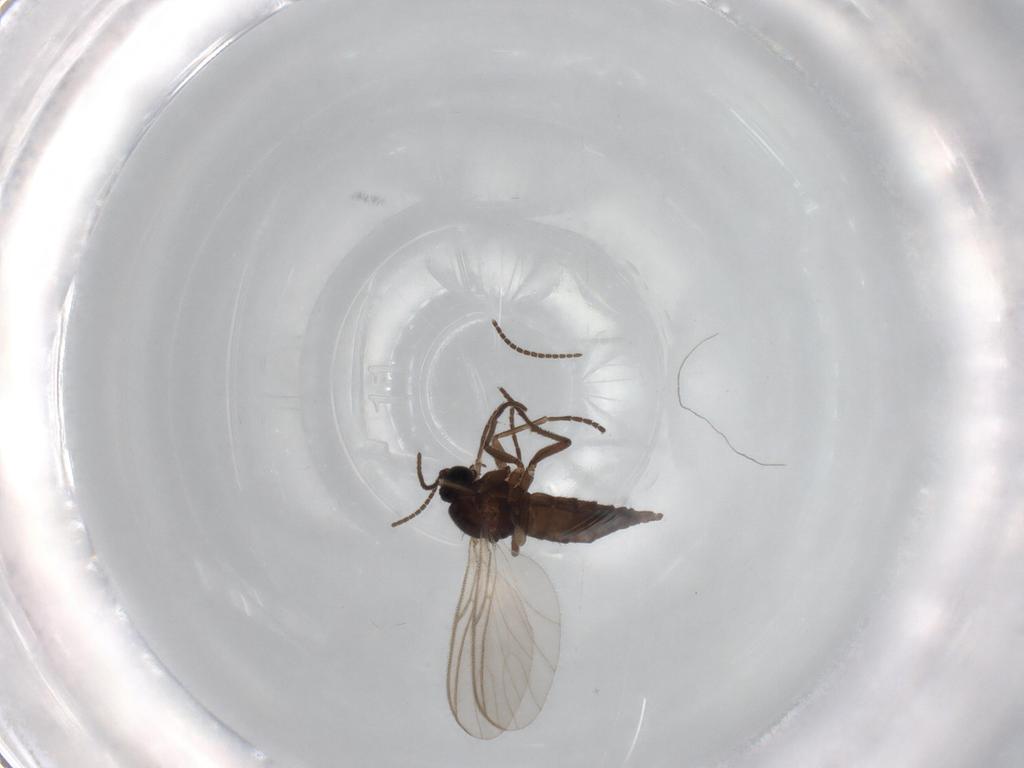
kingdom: Animalia
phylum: Arthropoda
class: Insecta
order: Diptera
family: Sciaridae
